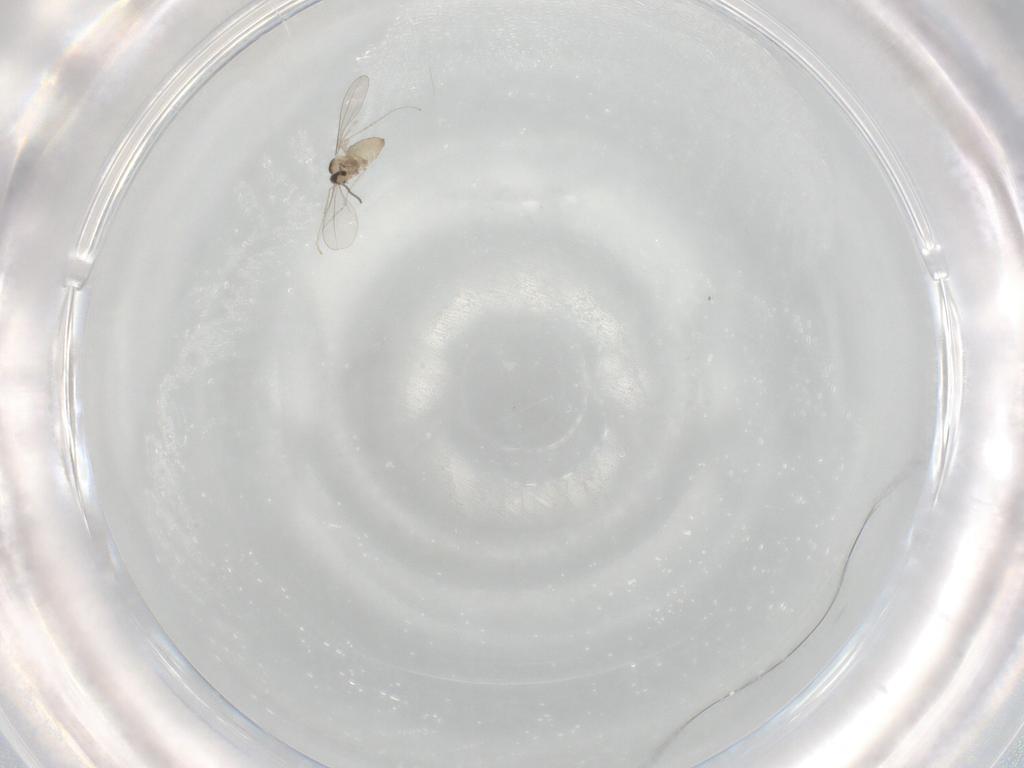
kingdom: Animalia
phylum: Arthropoda
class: Insecta
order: Diptera
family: Cecidomyiidae
